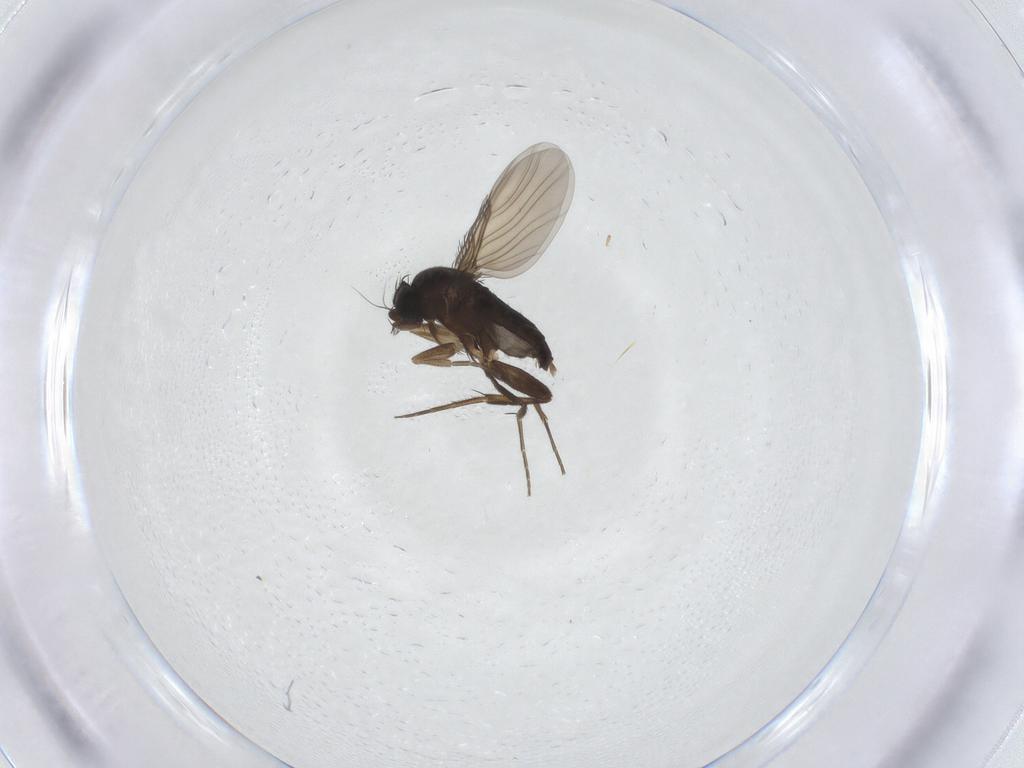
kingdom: Animalia
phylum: Arthropoda
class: Insecta
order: Diptera
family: Phoridae
